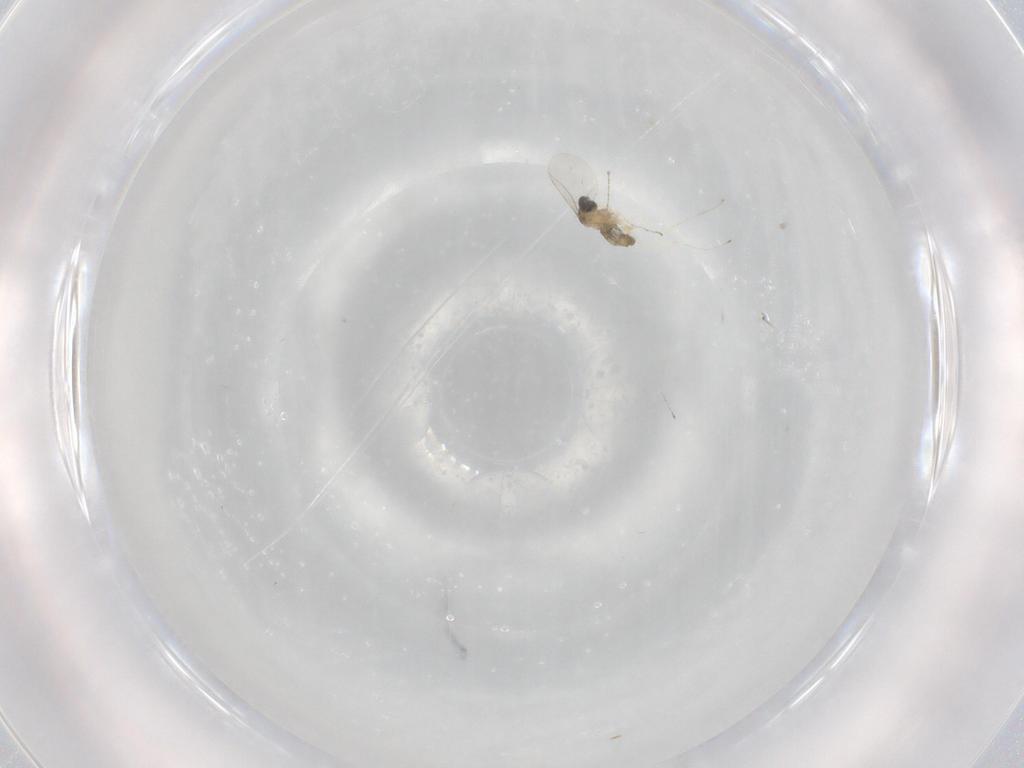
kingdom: Animalia
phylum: Arthropoda
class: Insecta
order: Diptera
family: Cecidomyiidae
